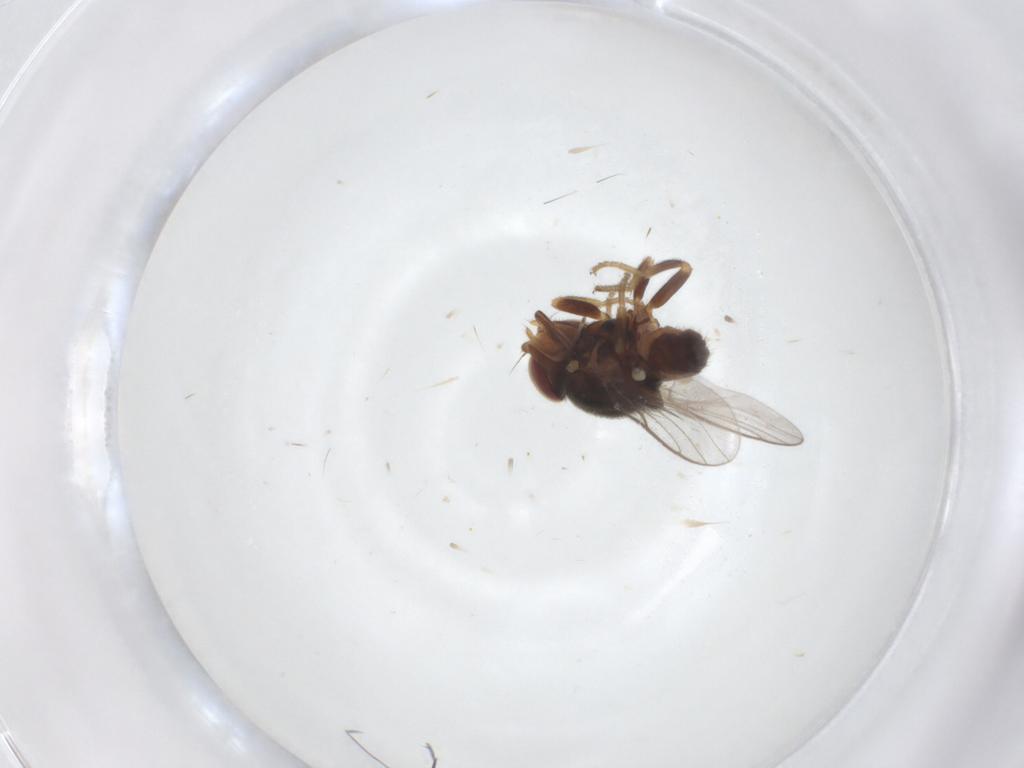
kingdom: Animalia
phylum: Arthropoda
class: Insecta
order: Diptera
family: Chloropidae
